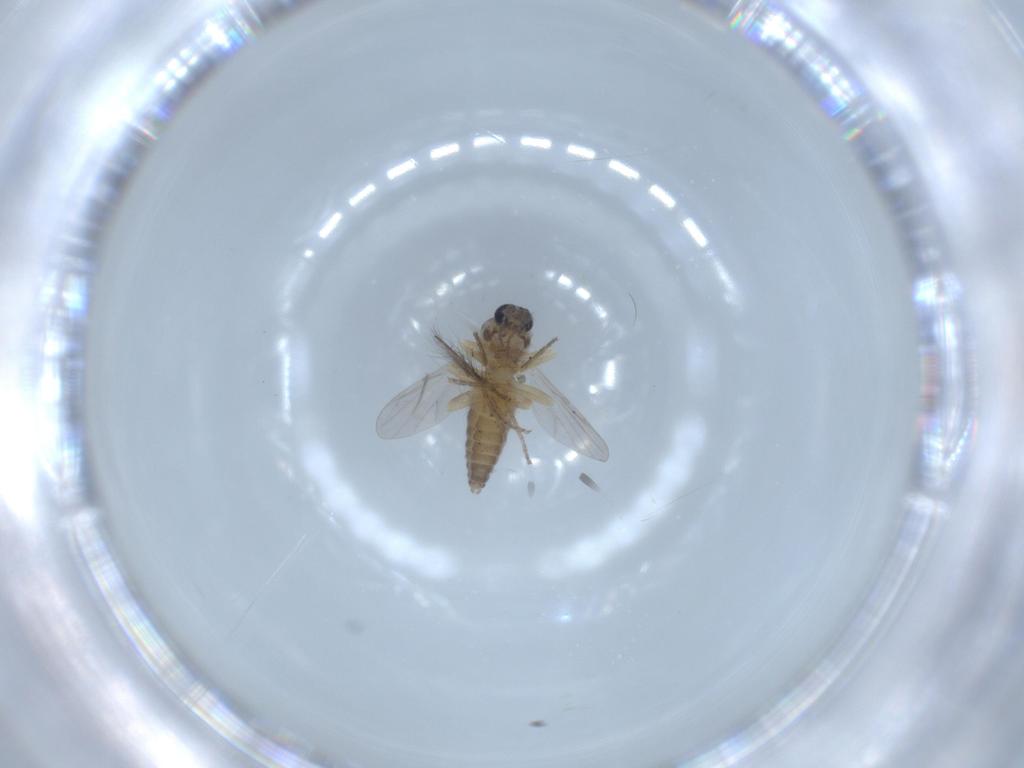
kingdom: Animalia
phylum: Arthropoda
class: Insecta
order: Diptera
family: Ceratopogonidae
